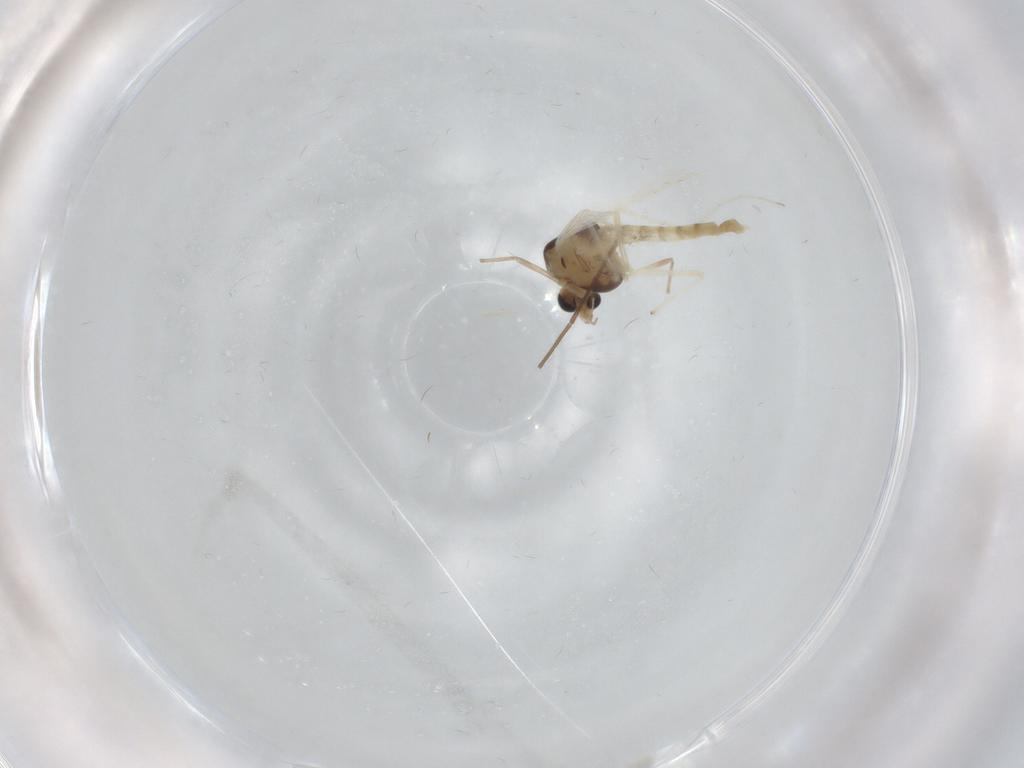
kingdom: Animalia
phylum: Arthropoda
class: Insecta
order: Diptera
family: Chironomidae
